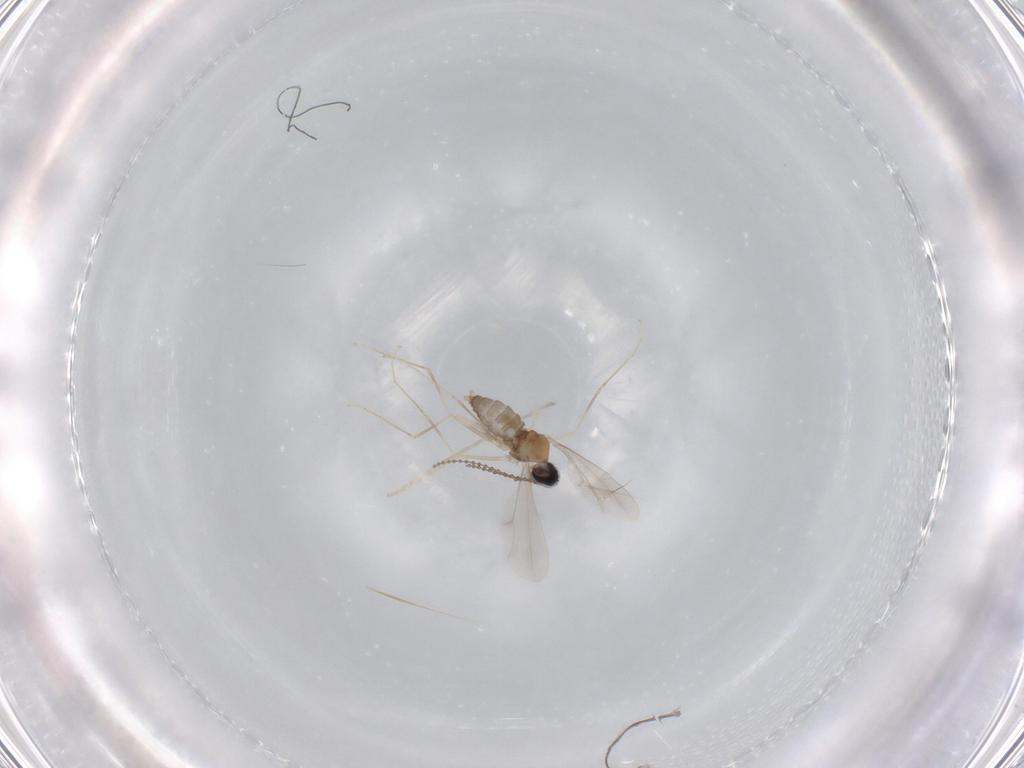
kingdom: Animalia
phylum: Arthropoda
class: Insecta
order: Diptera
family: Cecidomyiidae
